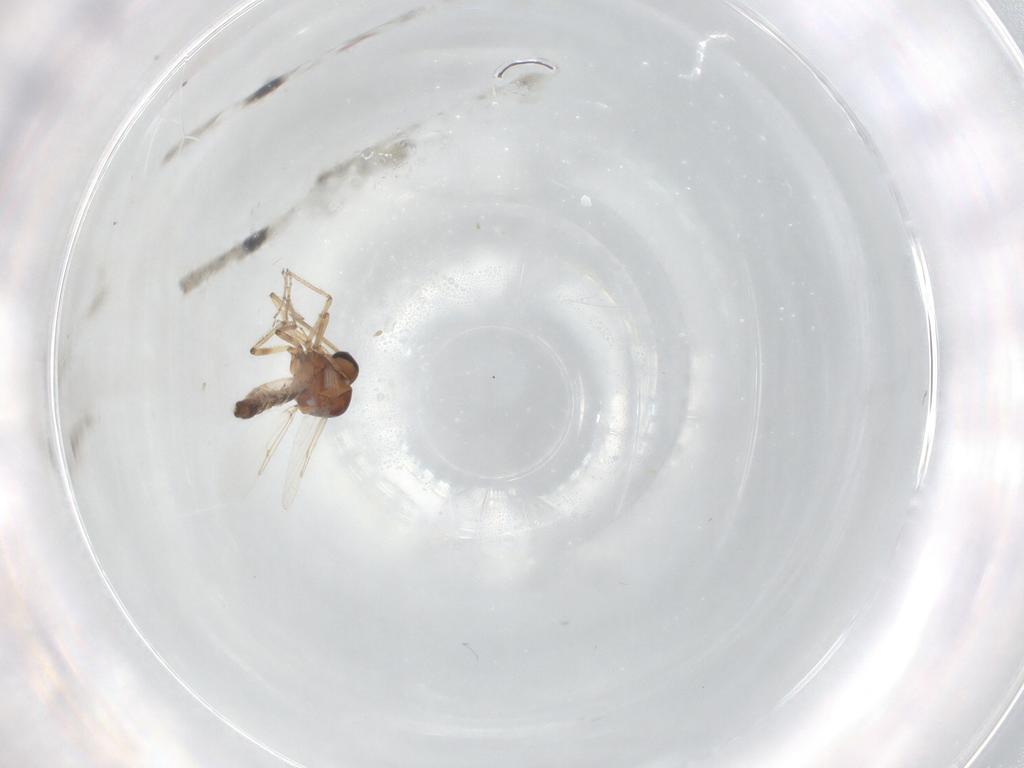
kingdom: Animalia
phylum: Arthropoda
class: Insecta
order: Diptera
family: Ceratopogonidae
